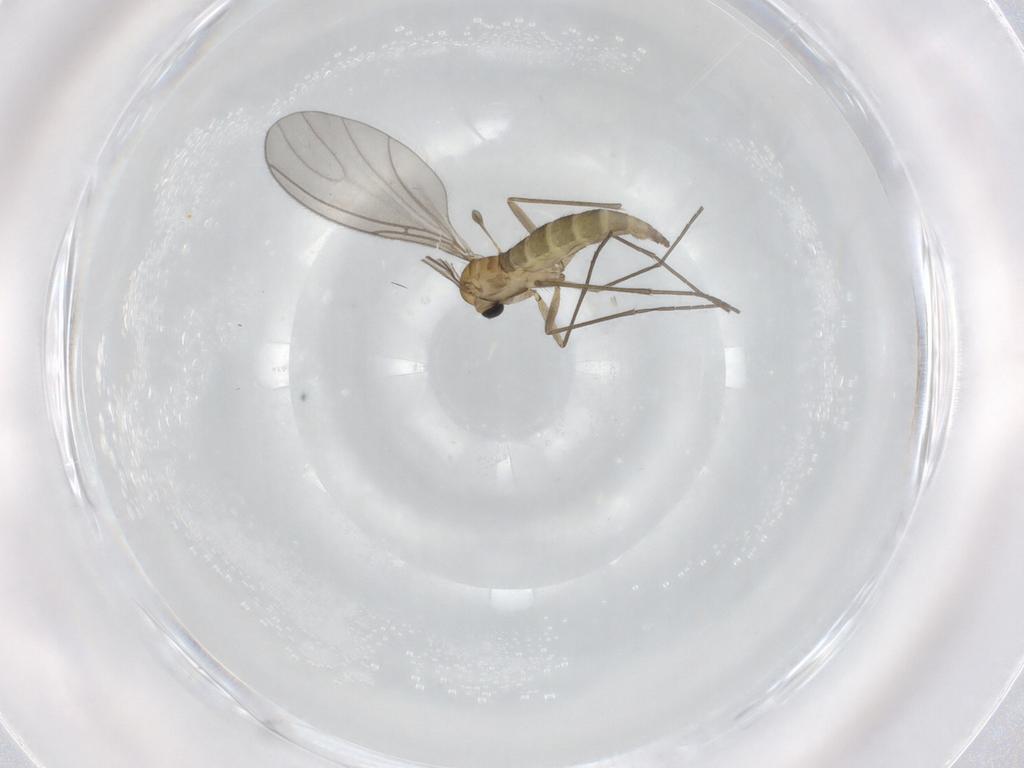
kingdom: Animalia
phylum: Arthropoda
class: Insecta
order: Diptera
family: Sciaridae
